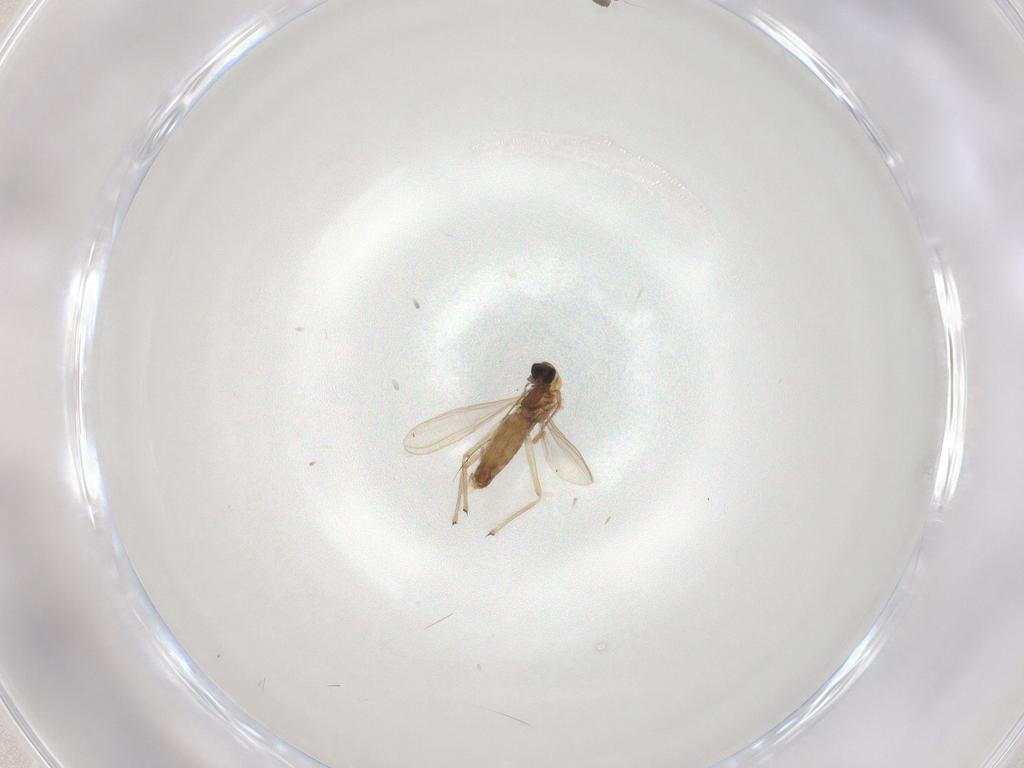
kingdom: Animalia
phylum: Arthropoda
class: Insecta
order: Diptera
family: Chironomidae
